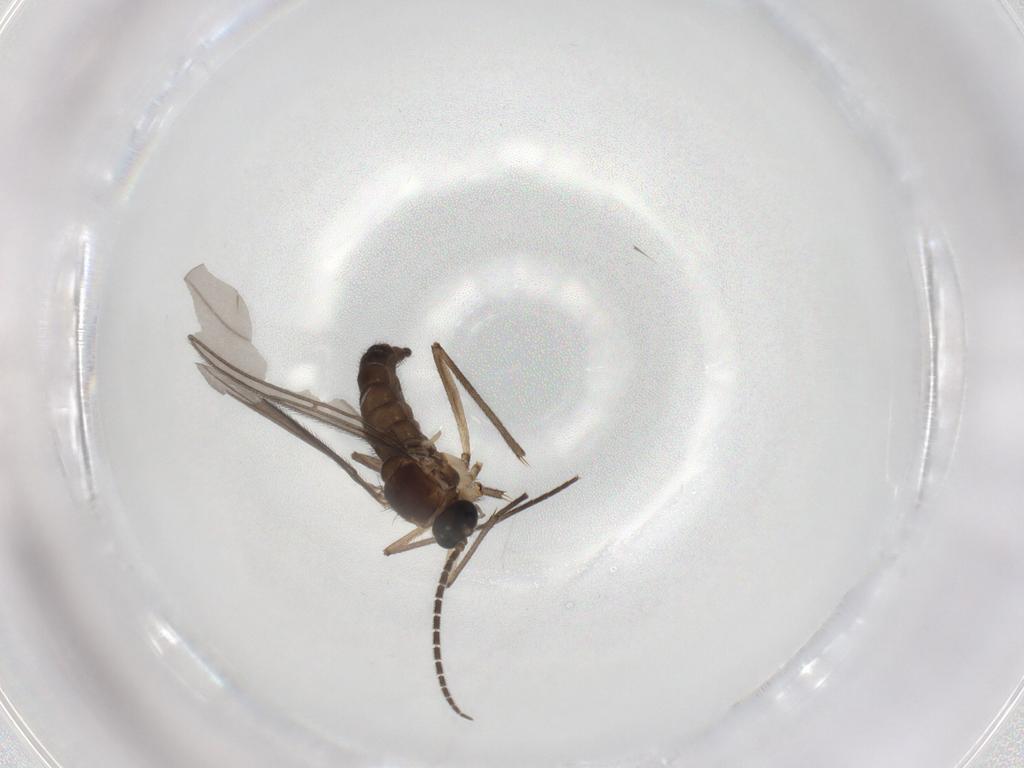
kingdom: Animalia
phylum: Arthropoda
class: Insecta
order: Diptera
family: Sciaridae
